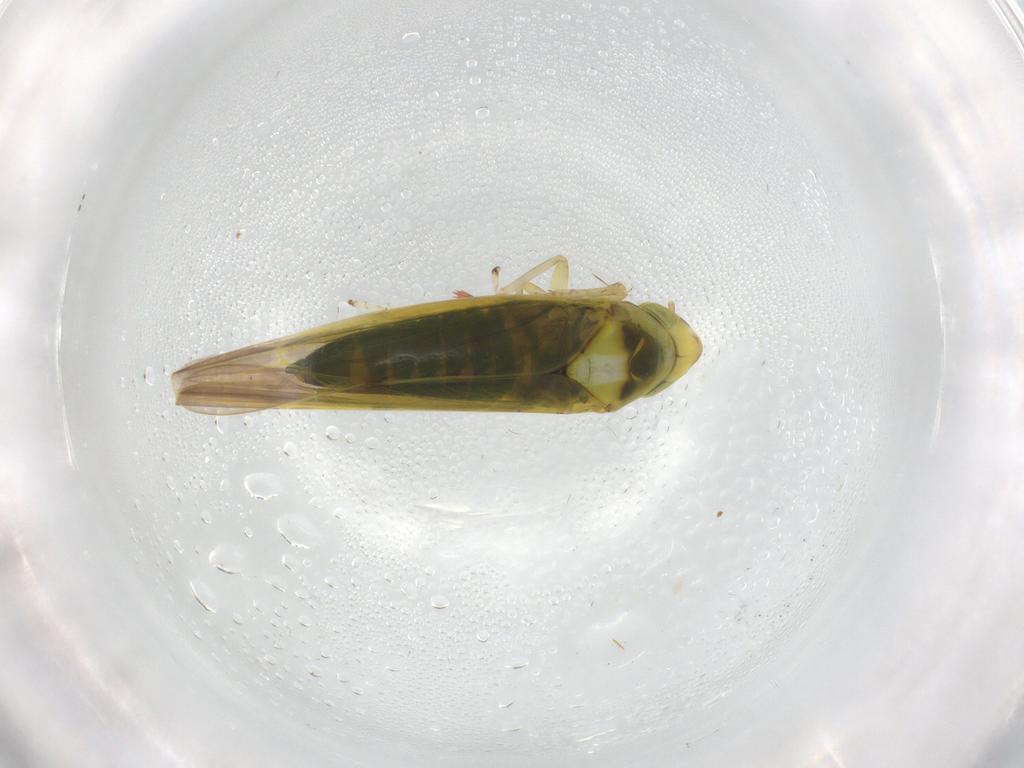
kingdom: Animalia
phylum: Arthropoda
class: Insecta
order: Hemiptera
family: Cicadellidae
